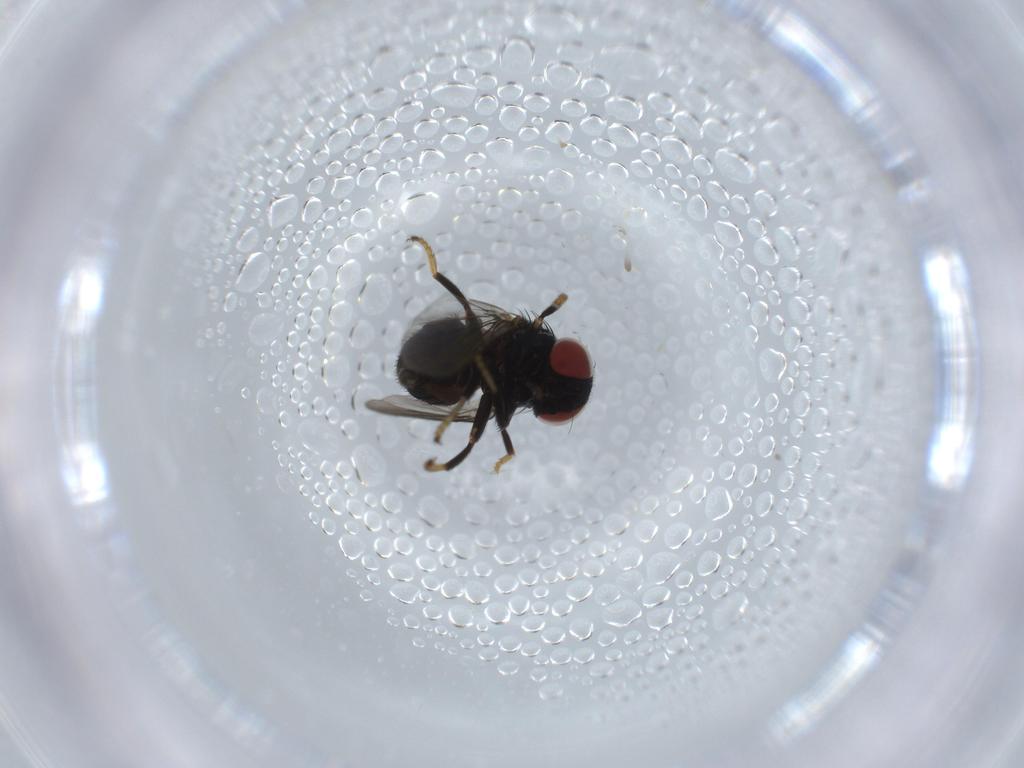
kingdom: Animalia
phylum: Arthropoda
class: Insecta
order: Diptera
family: Chamaemyiidae
